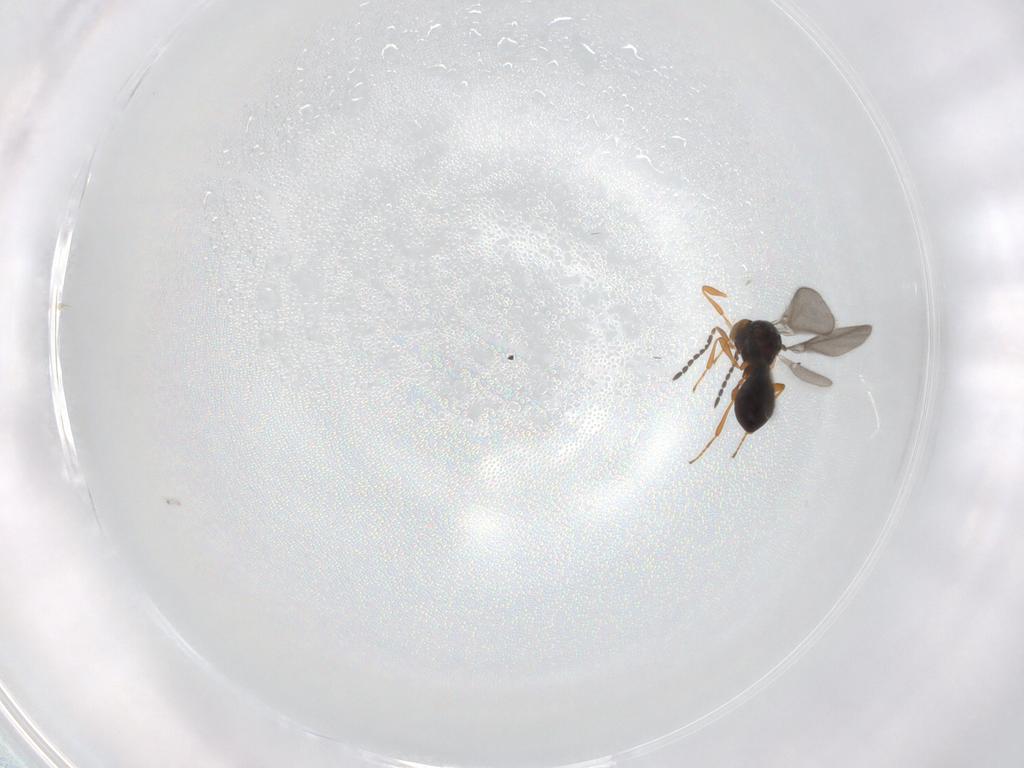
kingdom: Animalia
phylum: Arthropoda
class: Insecta
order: Hymenoptera
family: Platygastridae
